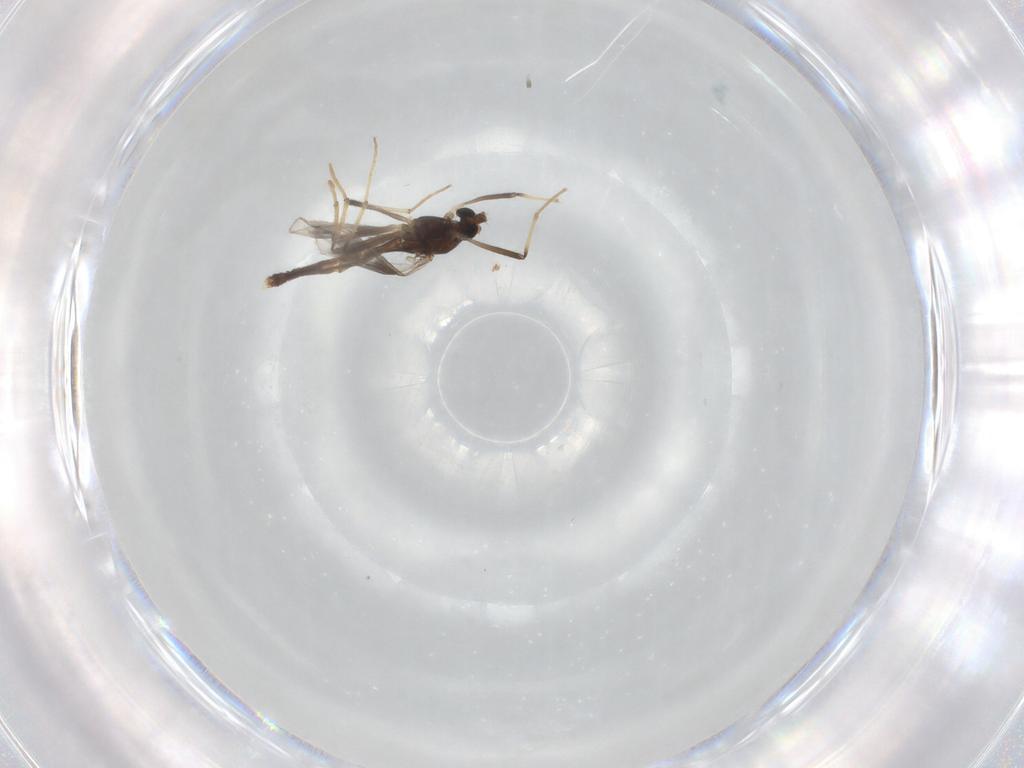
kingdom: Animalia
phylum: Arthropoda
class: Insecta
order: Diptera
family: Chironomidae
